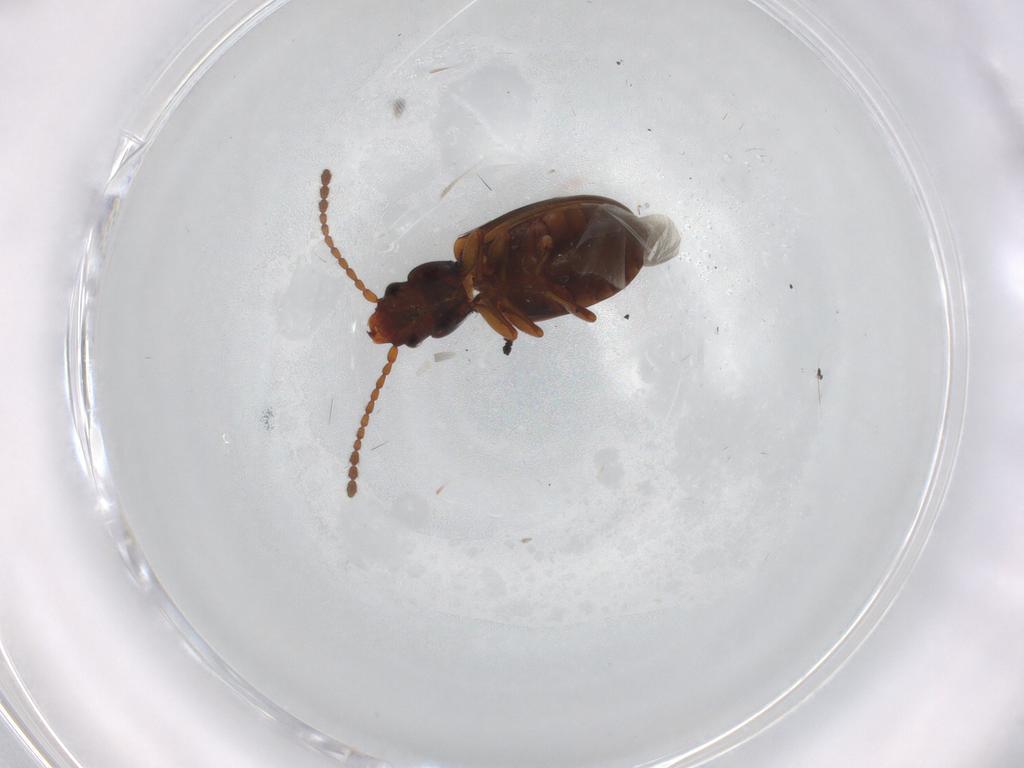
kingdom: Animalia
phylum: Arthropoda
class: Insecta
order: Coleoptera
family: Laemophloeidae
